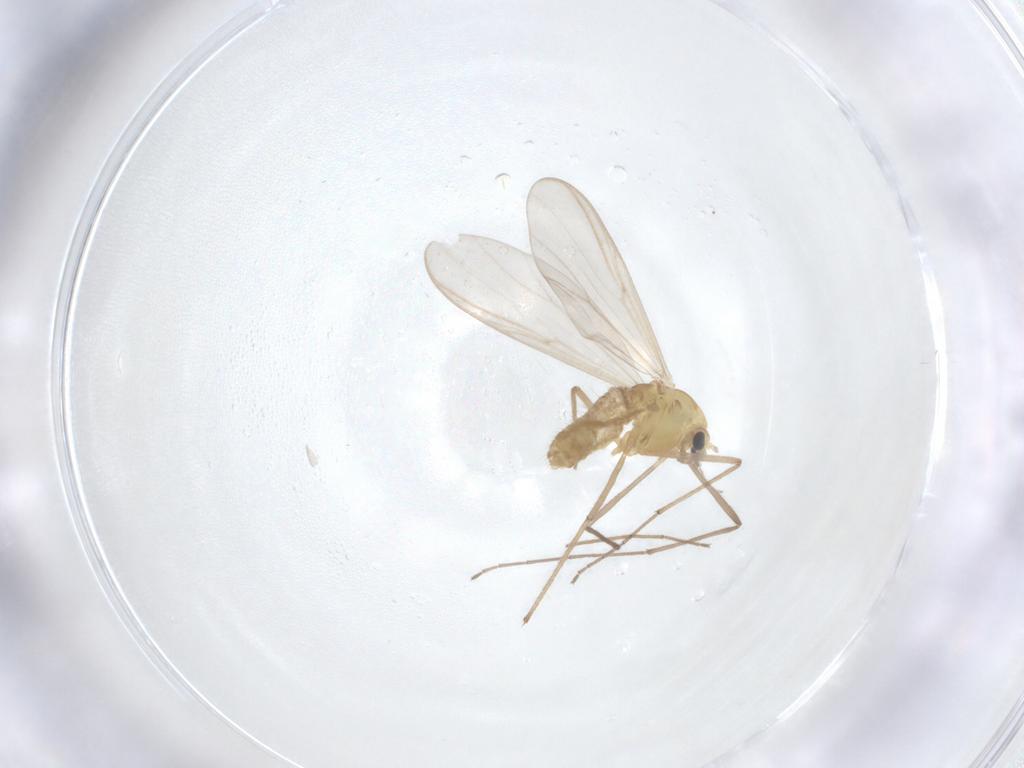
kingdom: Animalia
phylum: Arthropoda
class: Insecta
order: Diptera
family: Chironomidae
